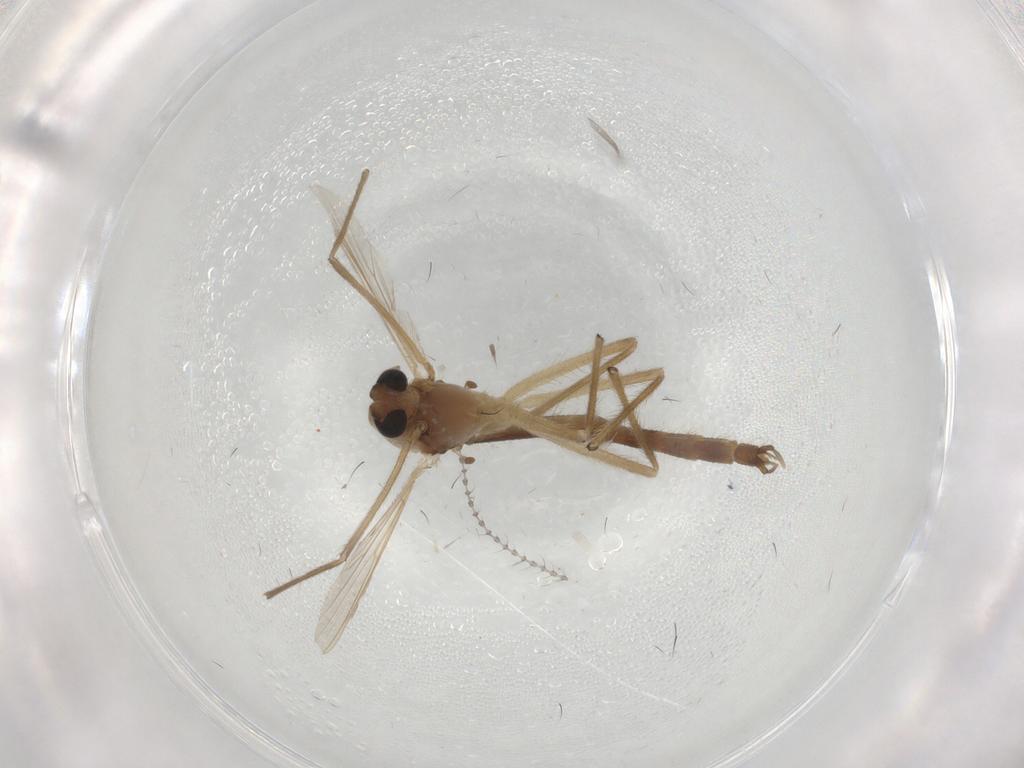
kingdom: Animalia
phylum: Arthropoda
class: Insecta
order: Diptera
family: Cecidomyiidae
